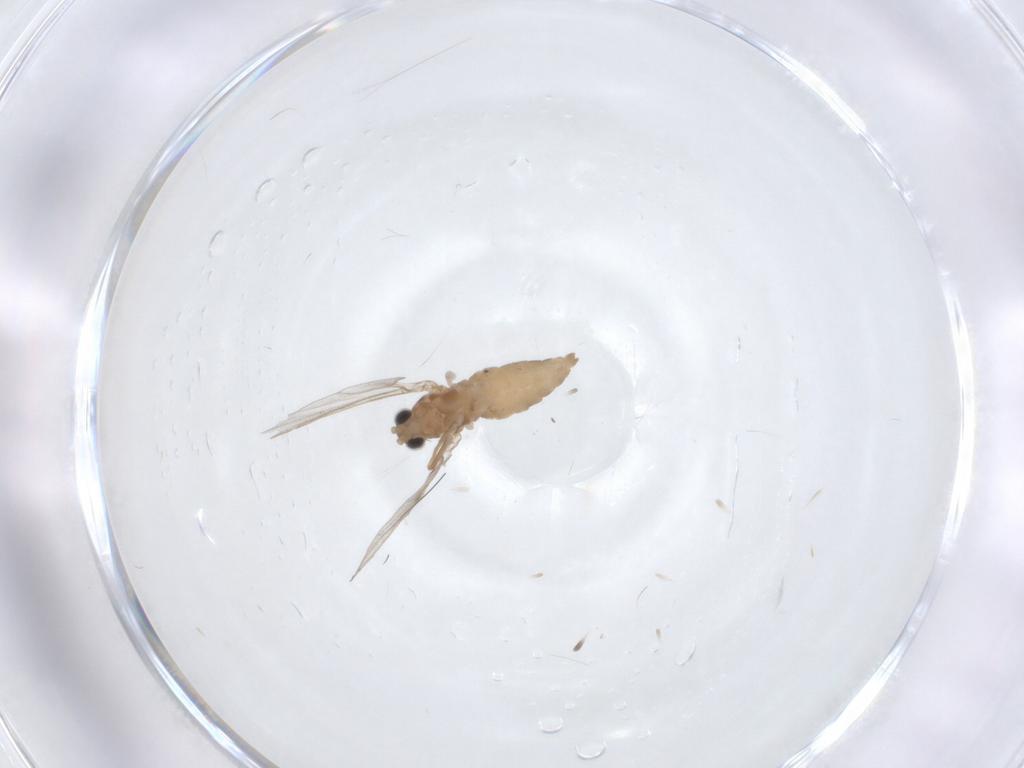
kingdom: Animalia
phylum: Arthropoda
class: Insecta
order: Diptera
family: Cecidomyiidae
